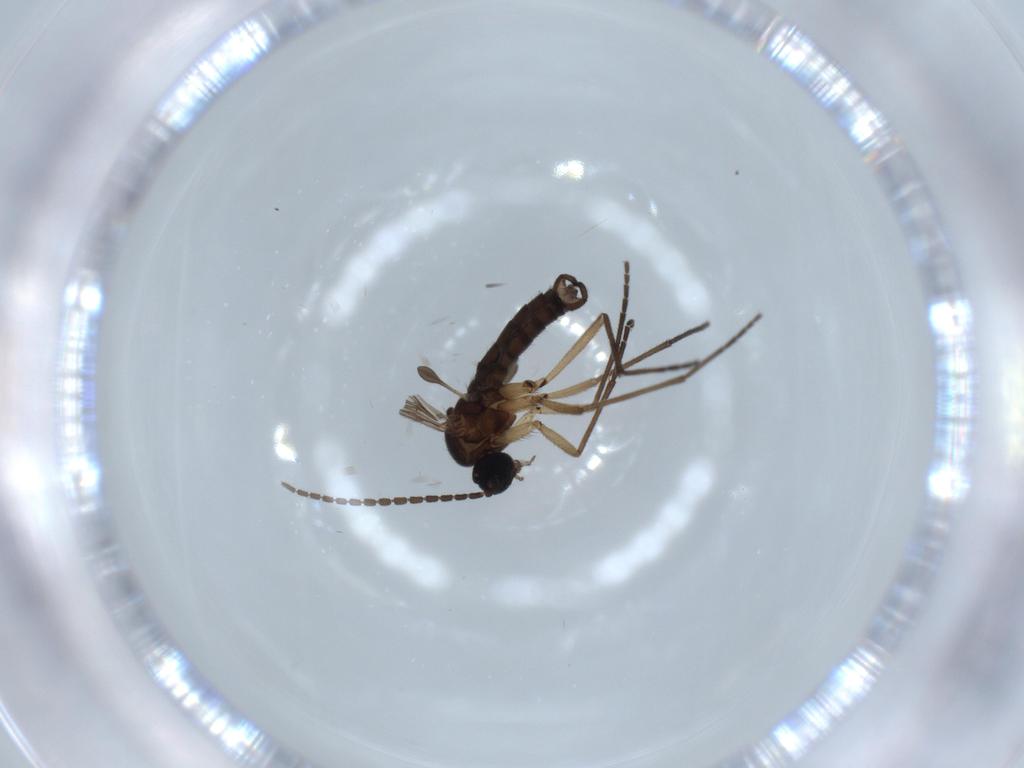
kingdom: Animalia
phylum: Arthropoda
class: Insecta
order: Diptera
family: Sciaridae
